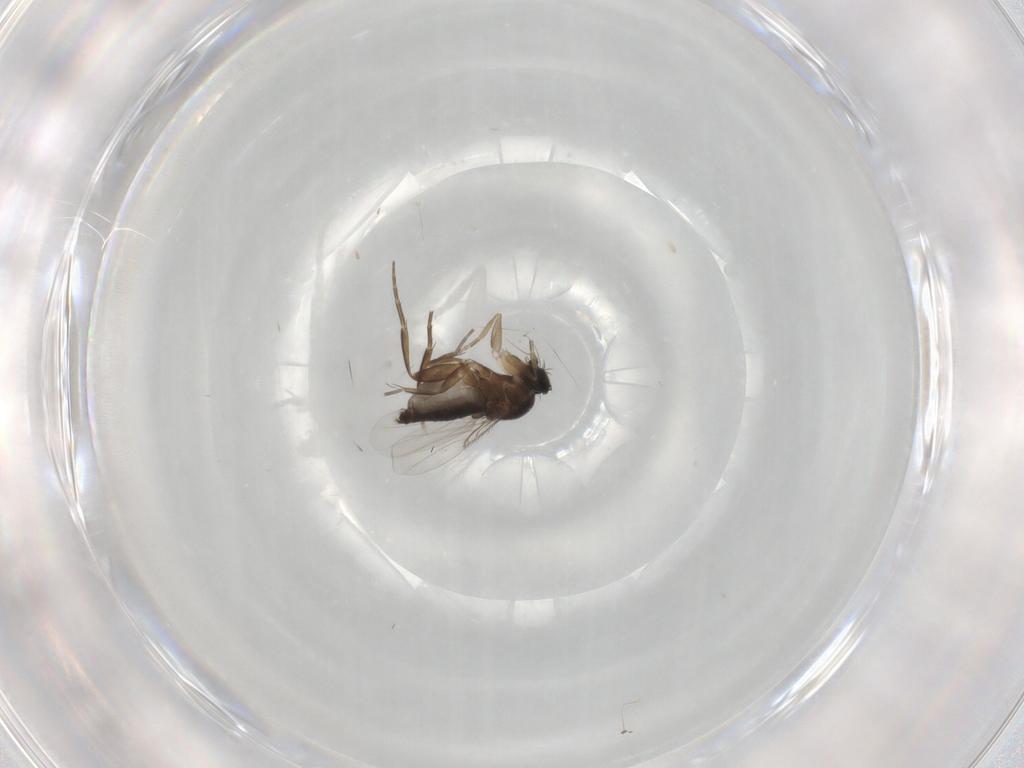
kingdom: Animalia
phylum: Arthropoda
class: Insecta
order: Diptera
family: Phoridae
